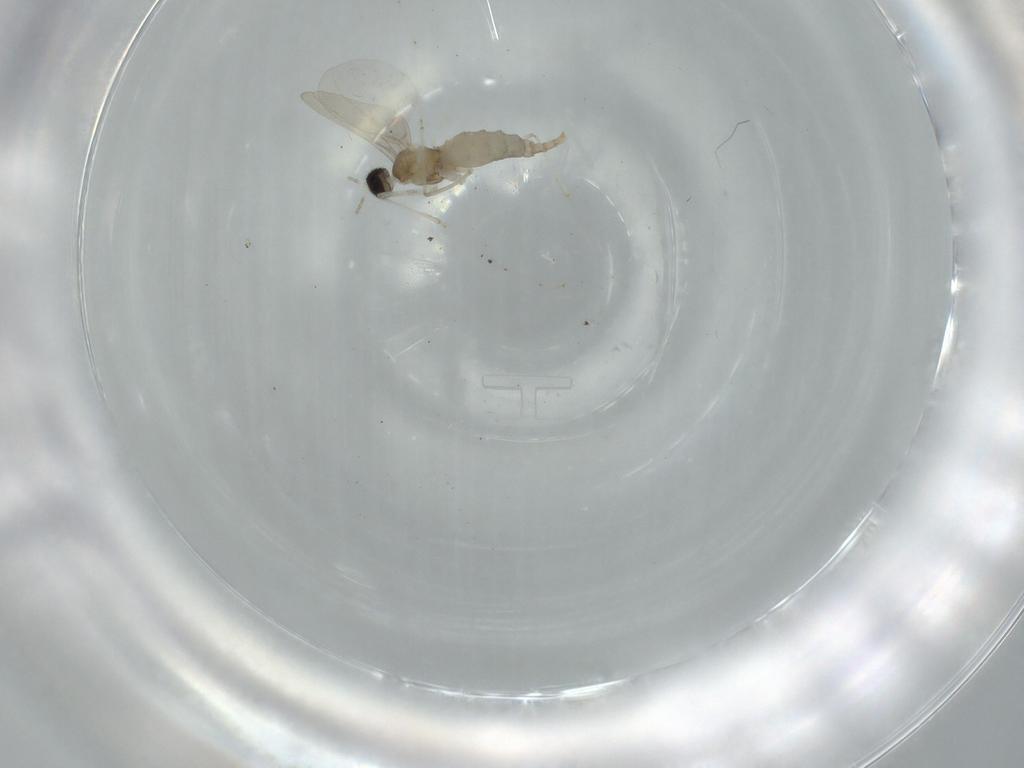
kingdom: Animalia
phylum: Arthropoda
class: Insecta
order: Diptera
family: Cecidomyiidae
